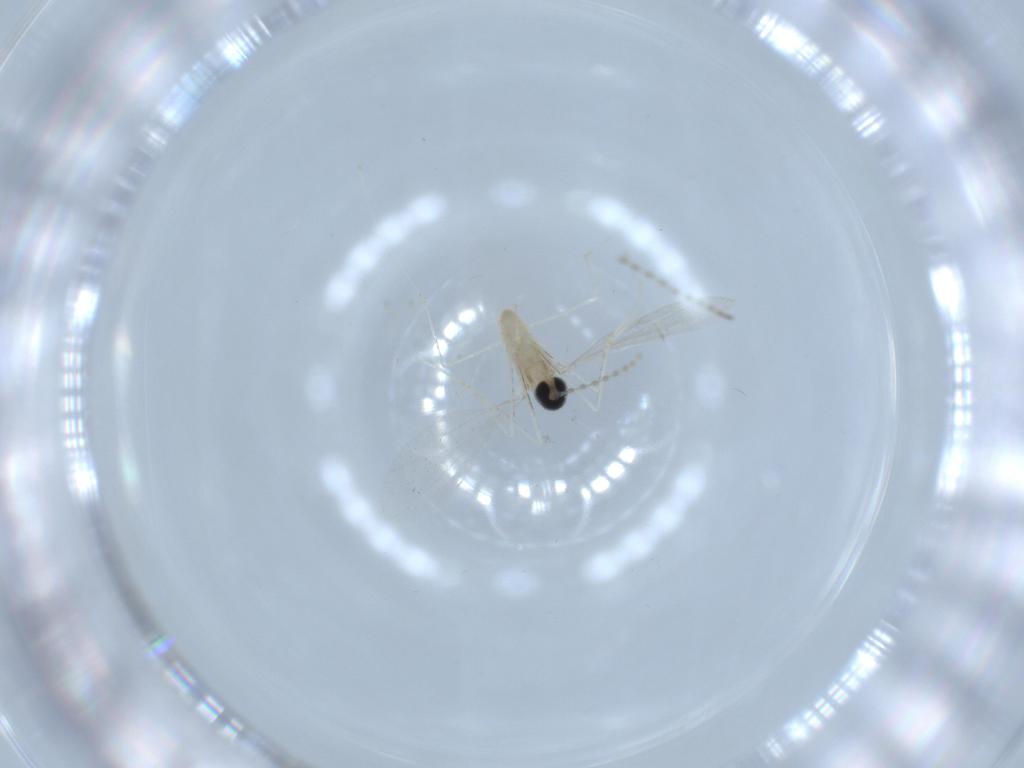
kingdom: Animalia
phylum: Arthropoda
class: Insecta
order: Diptera
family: Cecidomyiidae
